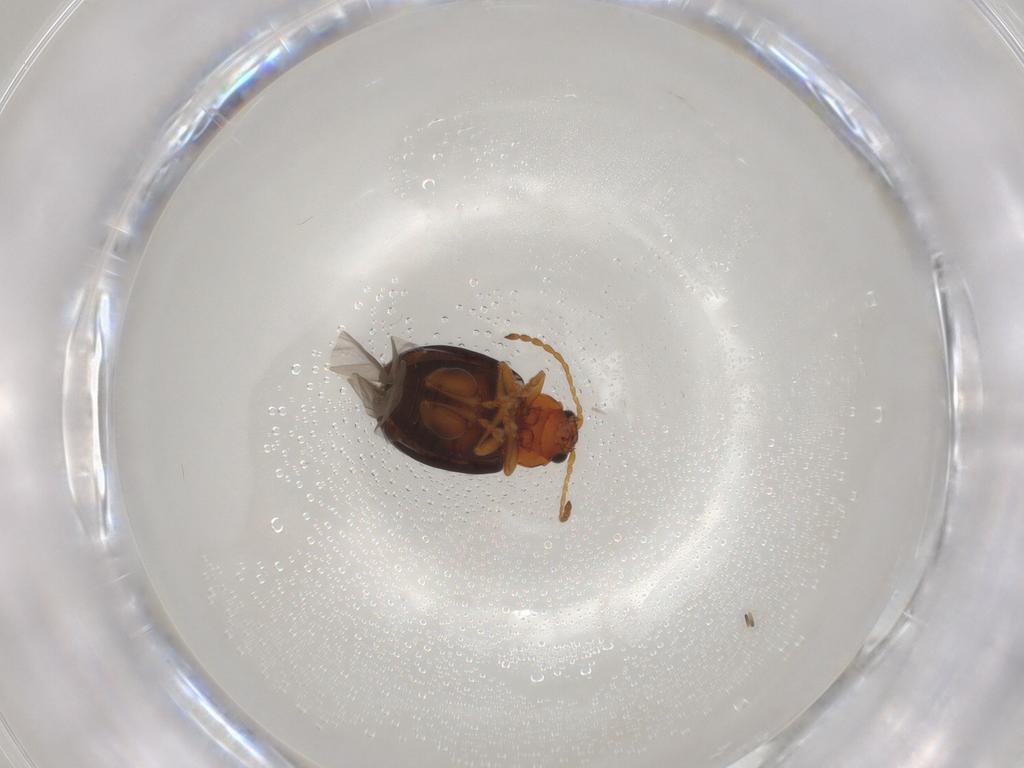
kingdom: Animalia
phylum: Arthropoda
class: Insecta
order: Coleoptera
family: Chrysomelidae
